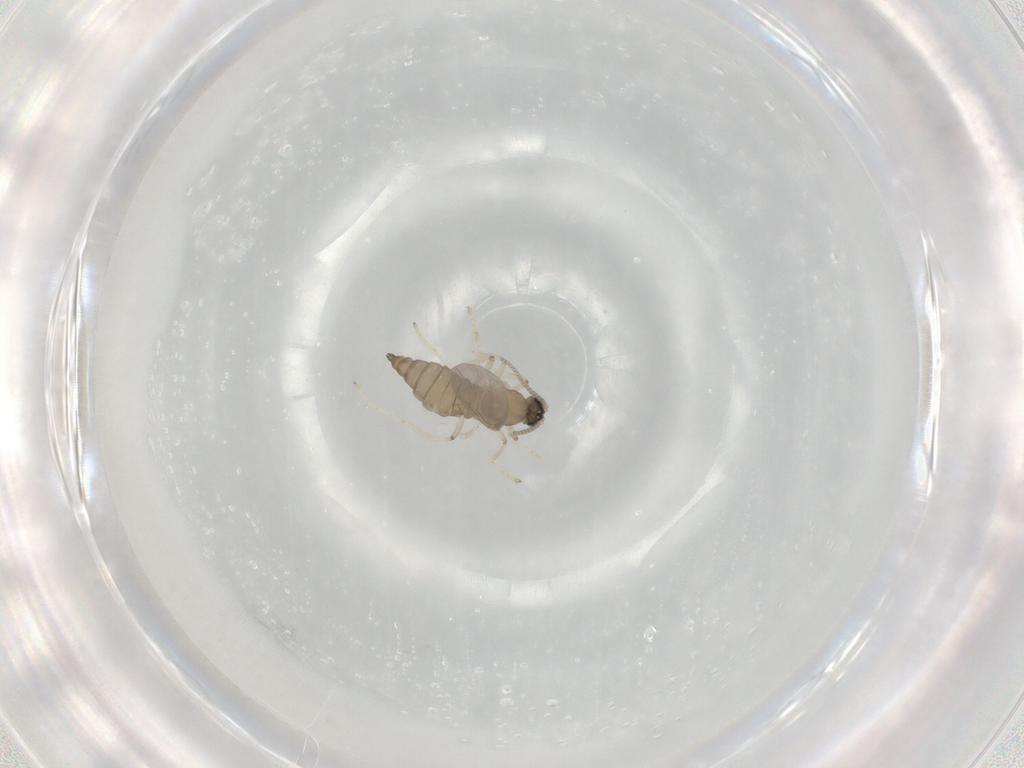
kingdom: Animalia
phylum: Arthropoda
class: Insecta
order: Diptera
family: Cecidomyiidae
